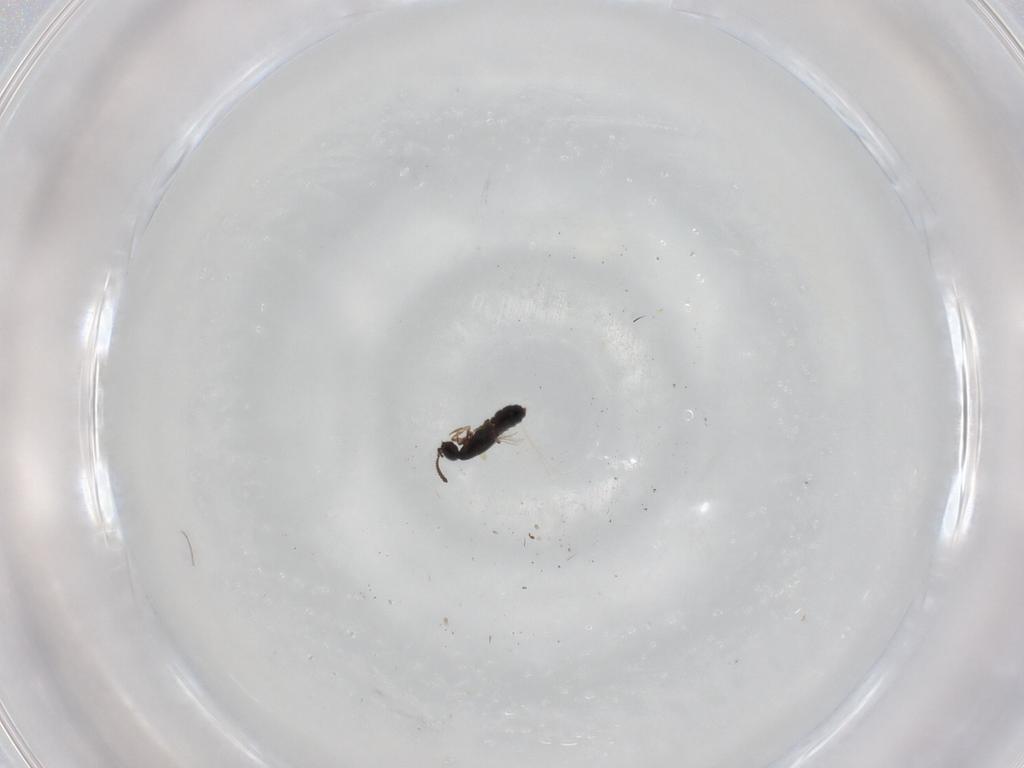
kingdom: Animalia
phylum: Arthropoda
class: Insecta
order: Coleoptera
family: Staphylinidae
